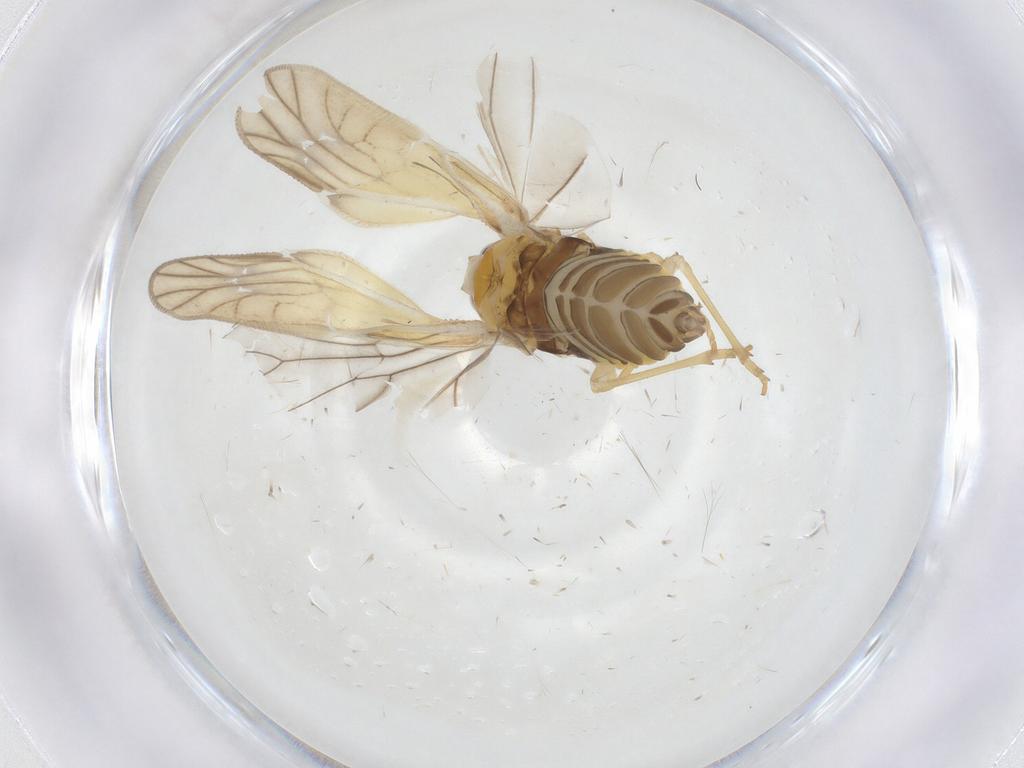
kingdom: Animalia
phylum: Arthropoda
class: Insecta
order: Hemiptera
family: Meenoplidae
